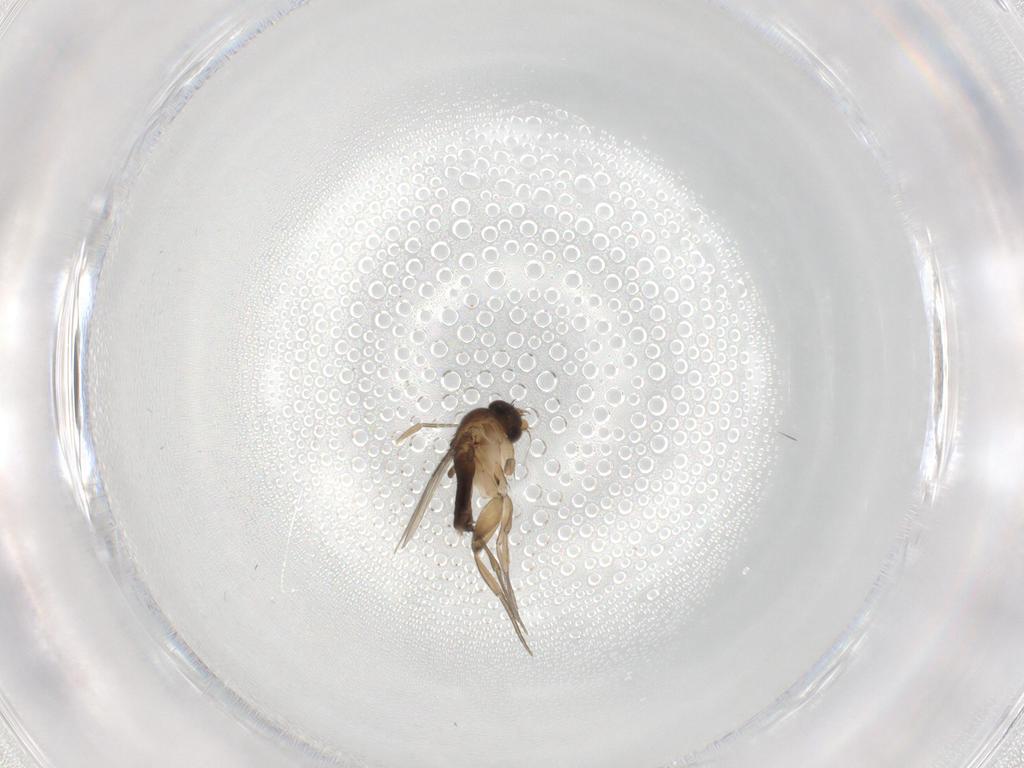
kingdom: Animalia
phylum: Arthropoda
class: Insecta
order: Diptera
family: Phoridae
